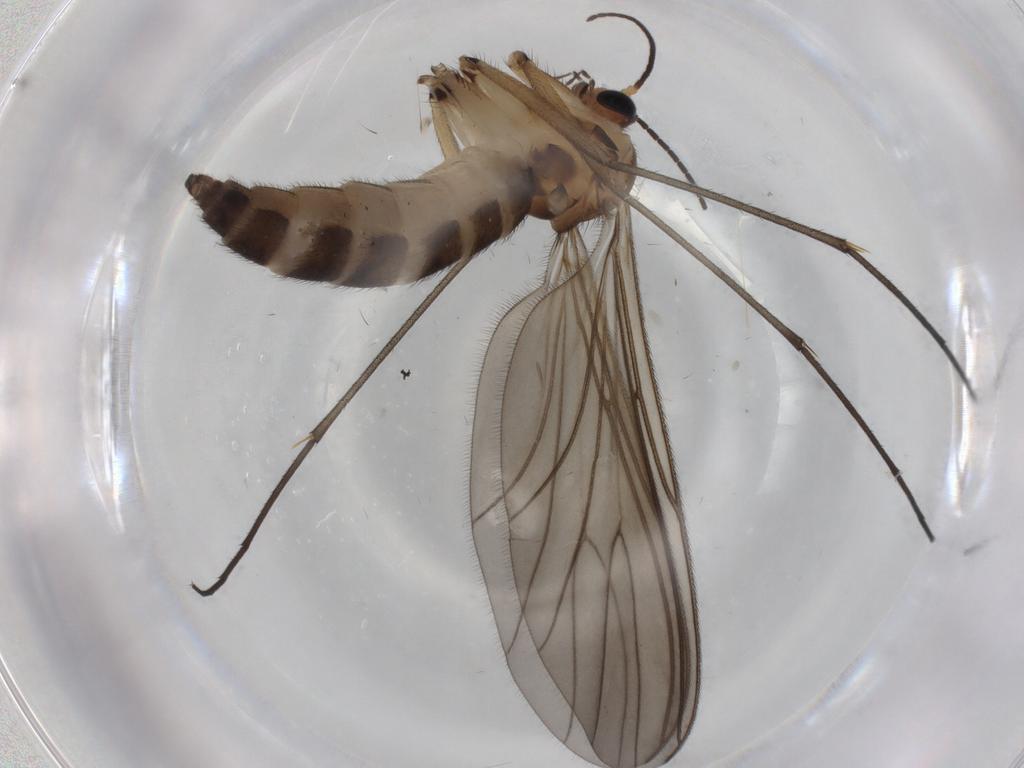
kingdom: Animalia
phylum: Arthropoda
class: Insecta
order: Diptera
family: Sciaridae
